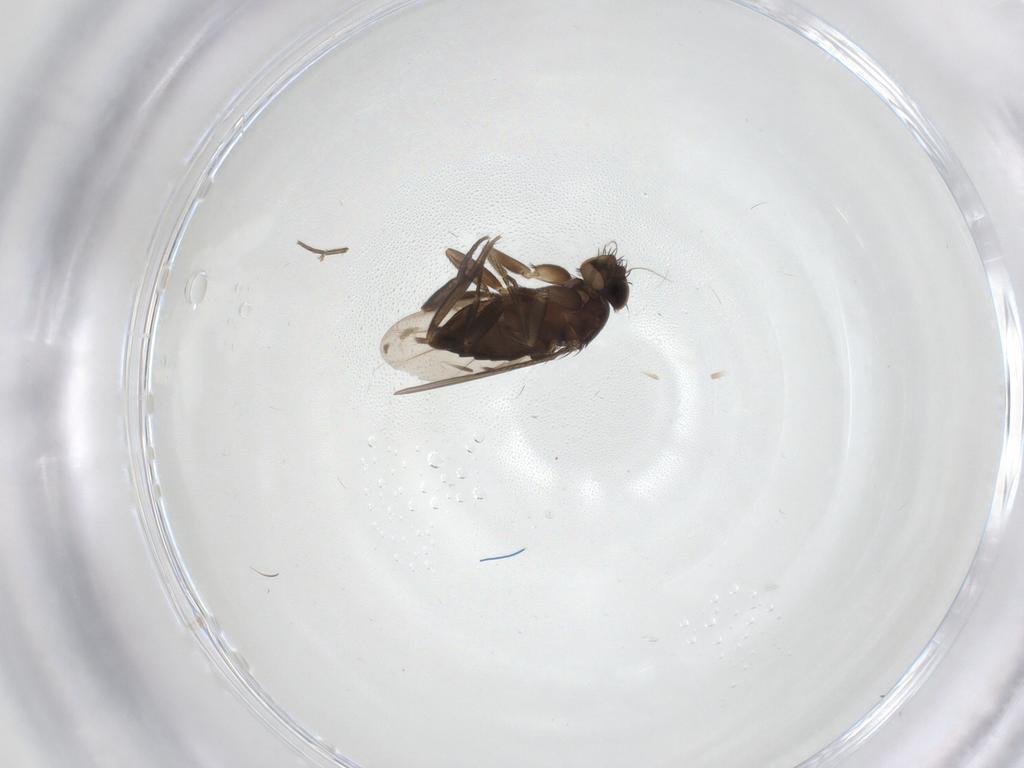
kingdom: Animalia
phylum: Arthropoda
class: Insecta
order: Diptera
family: Phoridae
